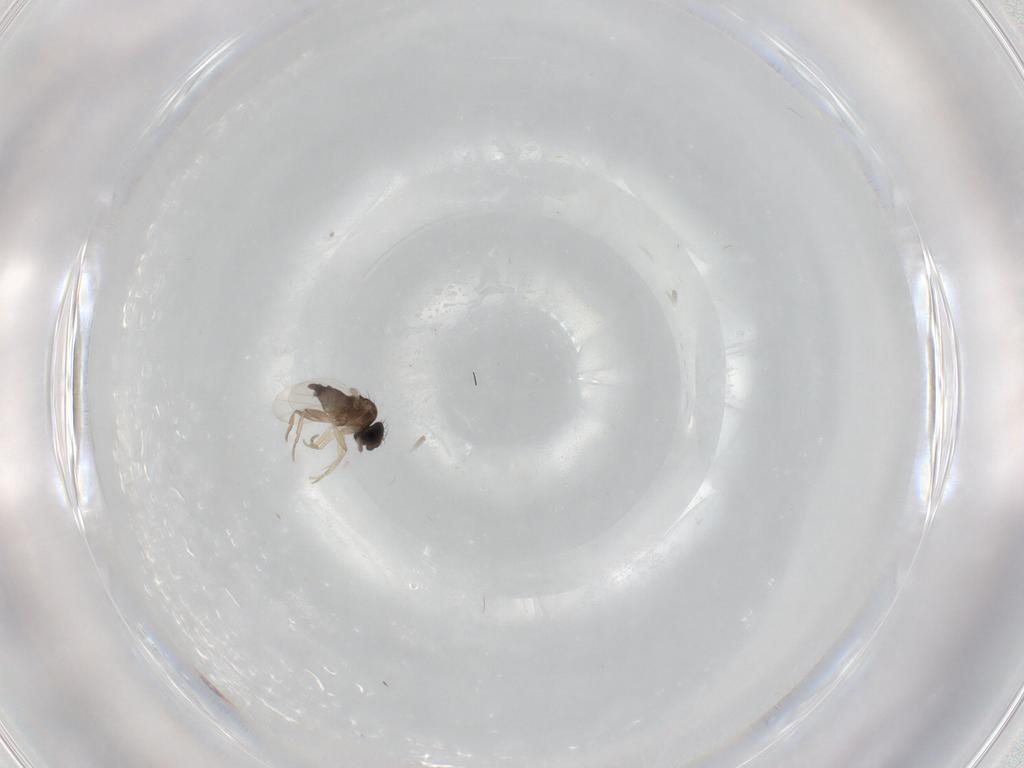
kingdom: Animalia
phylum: Arthropoda
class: Insecta
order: Diptera
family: Phoridae
